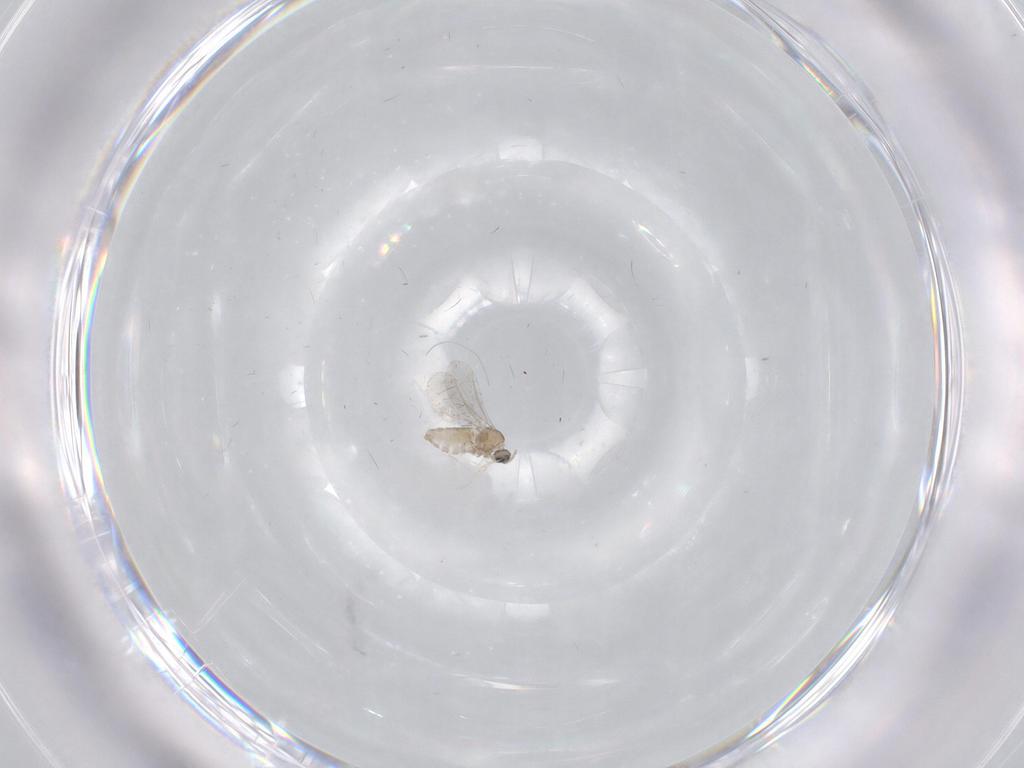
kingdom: Animalia
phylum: Arthropoda
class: Insecta
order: Diptera
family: Cecidomyiidae
